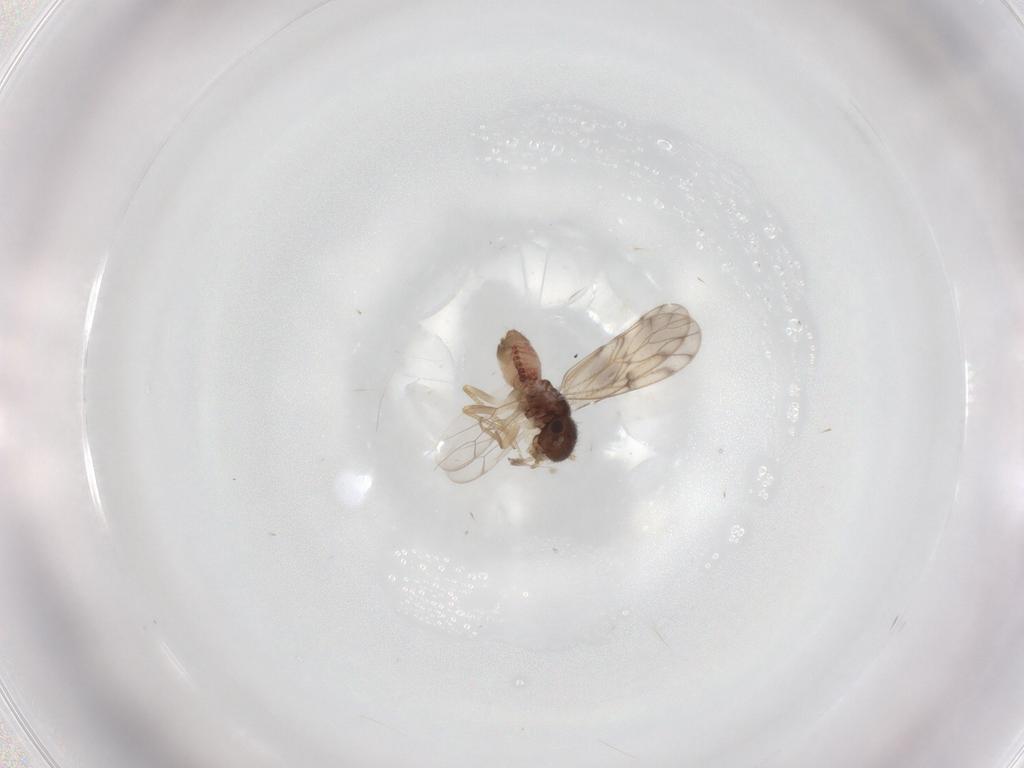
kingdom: Animalia
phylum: Arthropoda
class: Insecta
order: Psocodea
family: Peripsocidae
